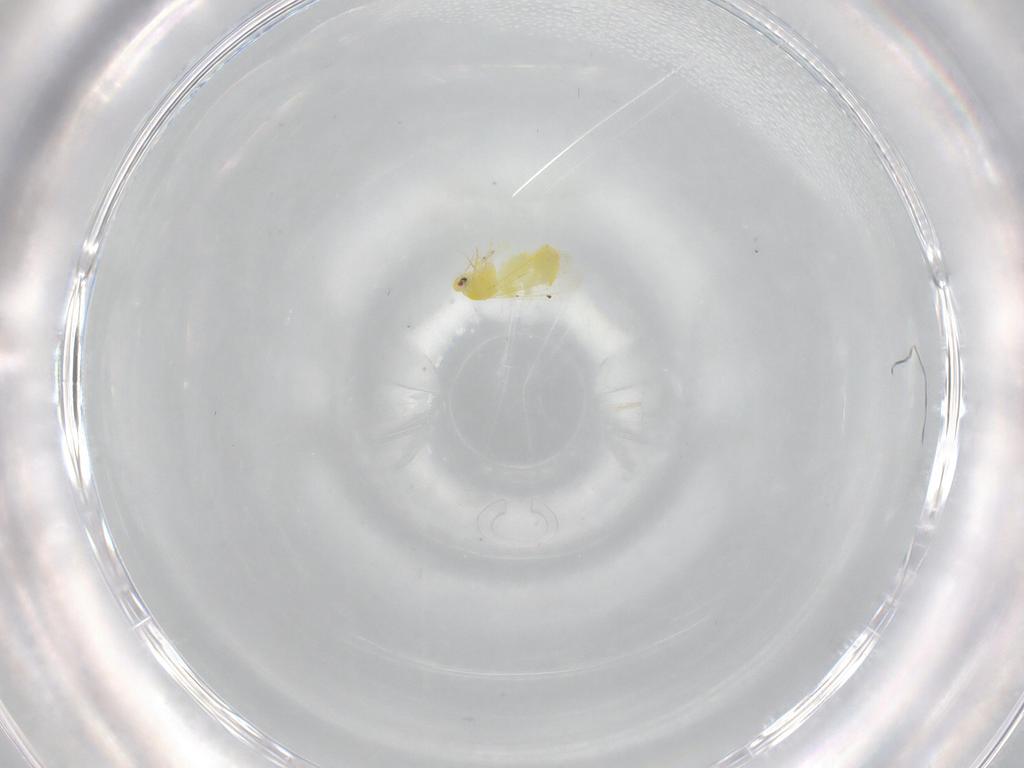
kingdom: Animalia
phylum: Arthropoda
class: Insecta
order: Hemiptera
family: Aleyrodidae
